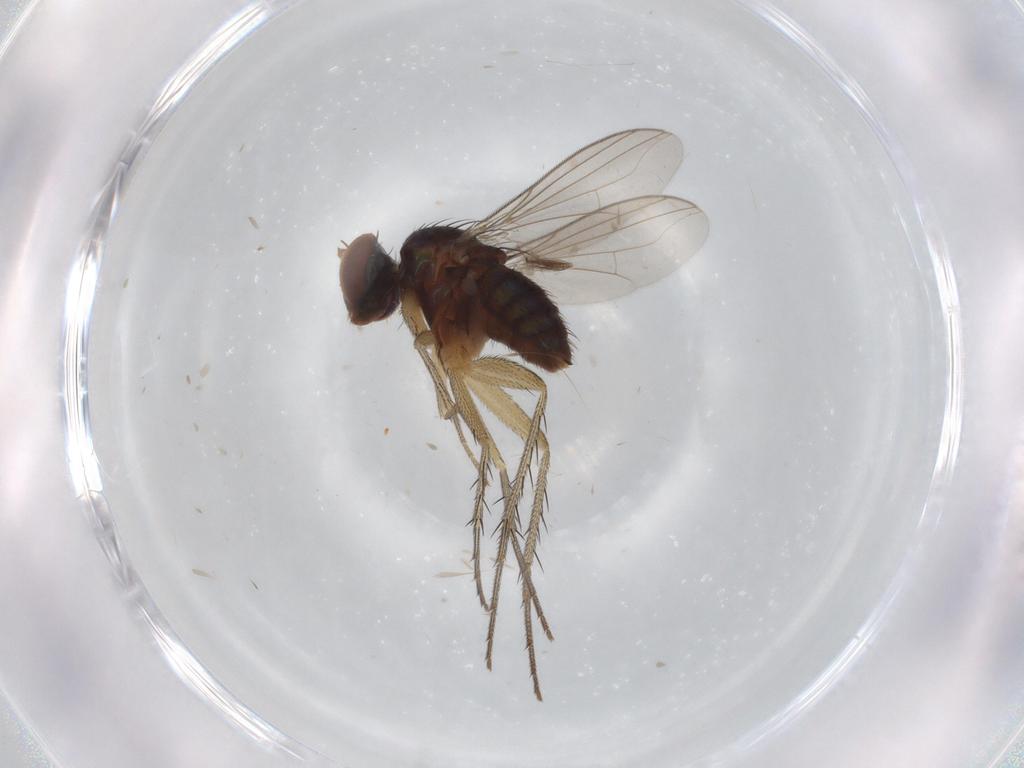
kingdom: Animalia
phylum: Arthropoda
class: Insecta
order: Diptera
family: Dolichopodidae
